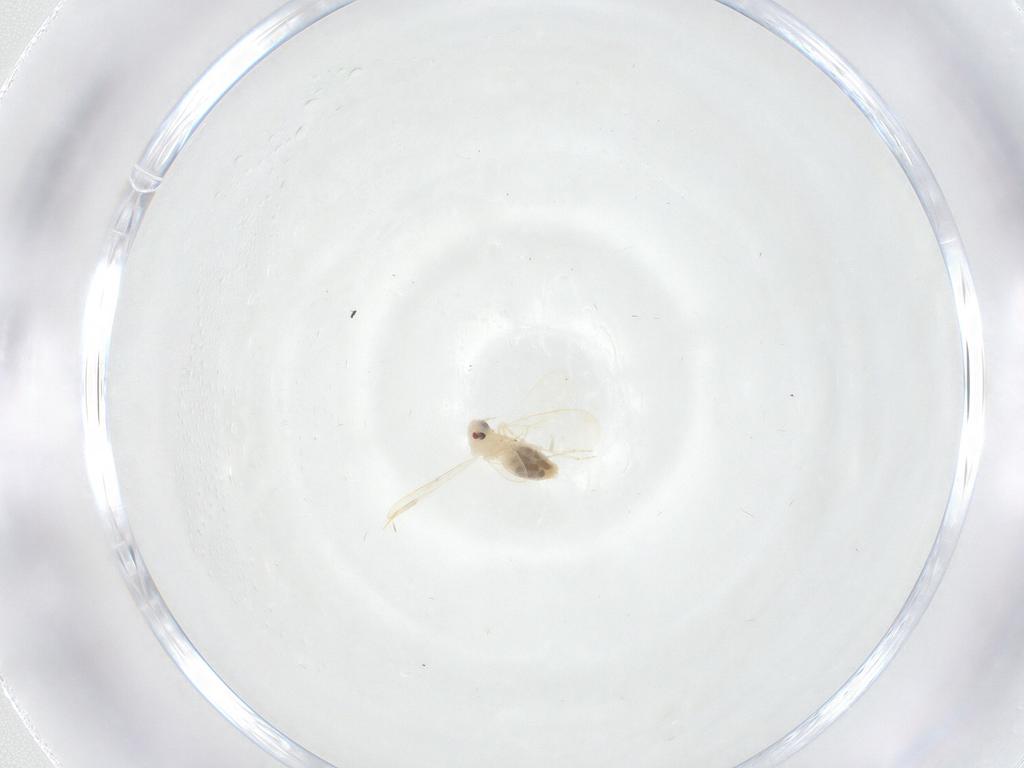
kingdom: Animalia
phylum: Arthropoda
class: Insecta
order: Hemiptera
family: Aleyrodidae
